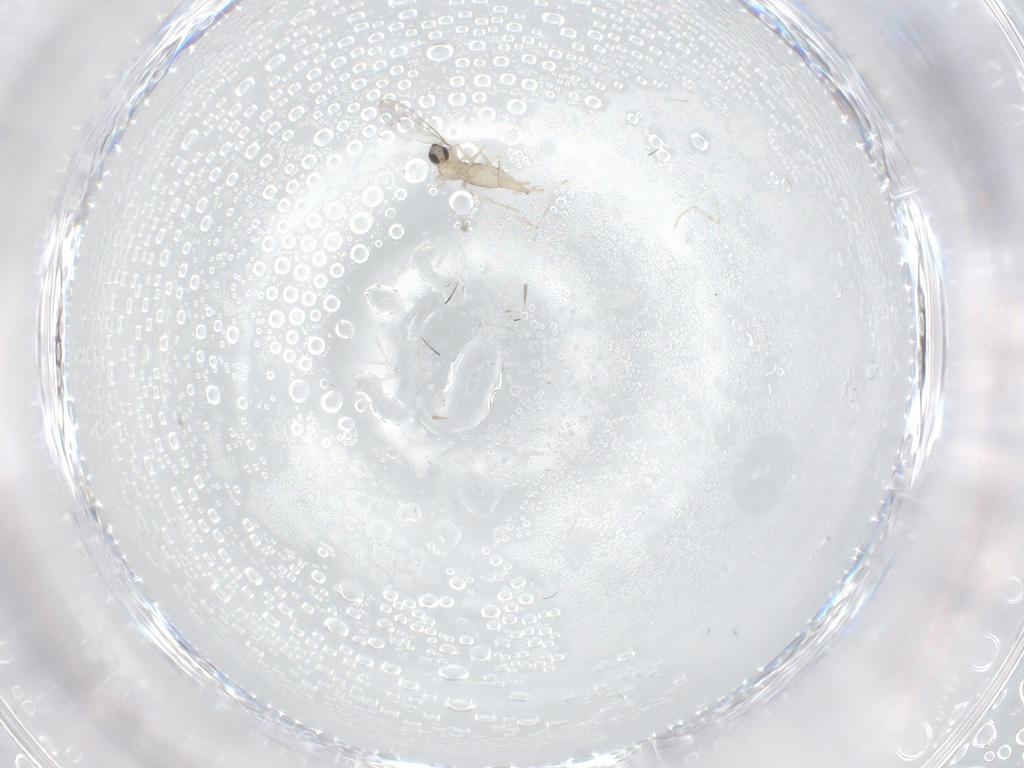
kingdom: Animalia
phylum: Arthropoda
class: Insecta
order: Diptera
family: Cecidomyiidae
